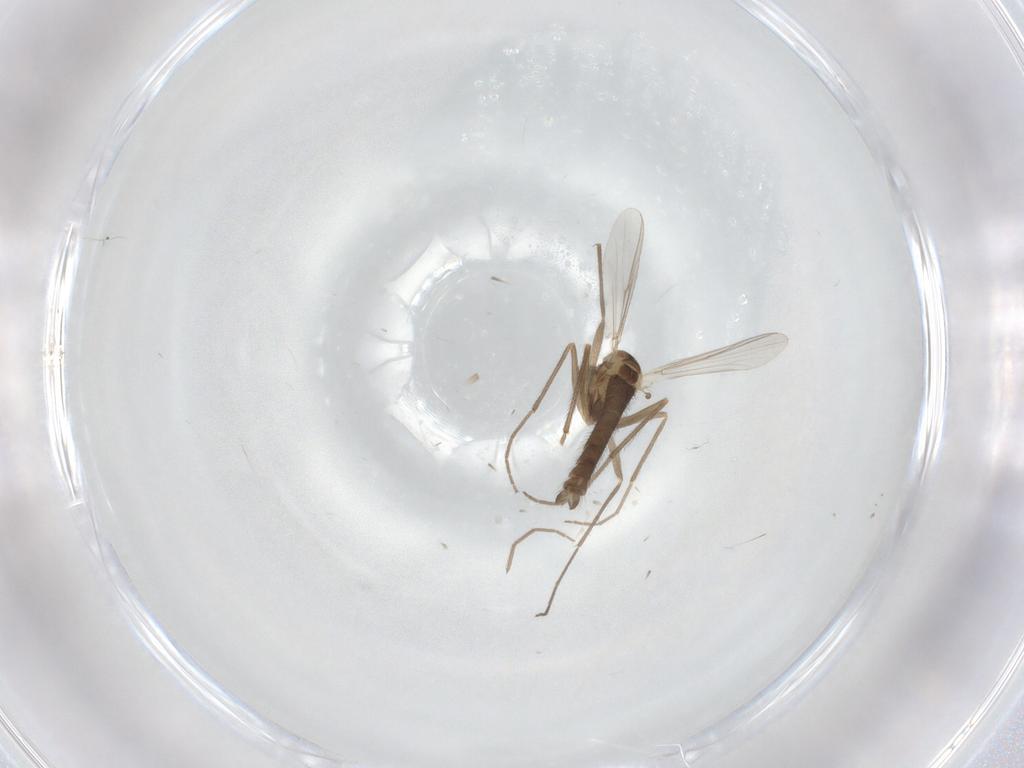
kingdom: Animalia
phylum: Arthropoda
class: Insecta
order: Diptera
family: Chironomidae
